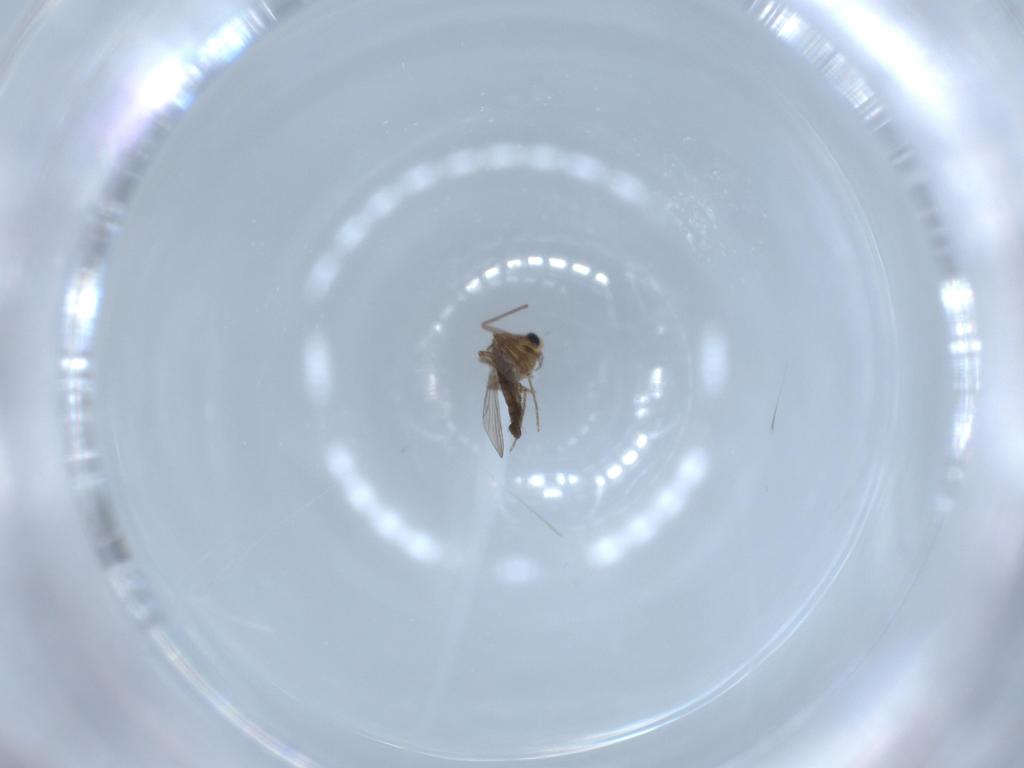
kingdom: Animalia
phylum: Arthropoda
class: Insecta
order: Diptera
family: Chironomidae
